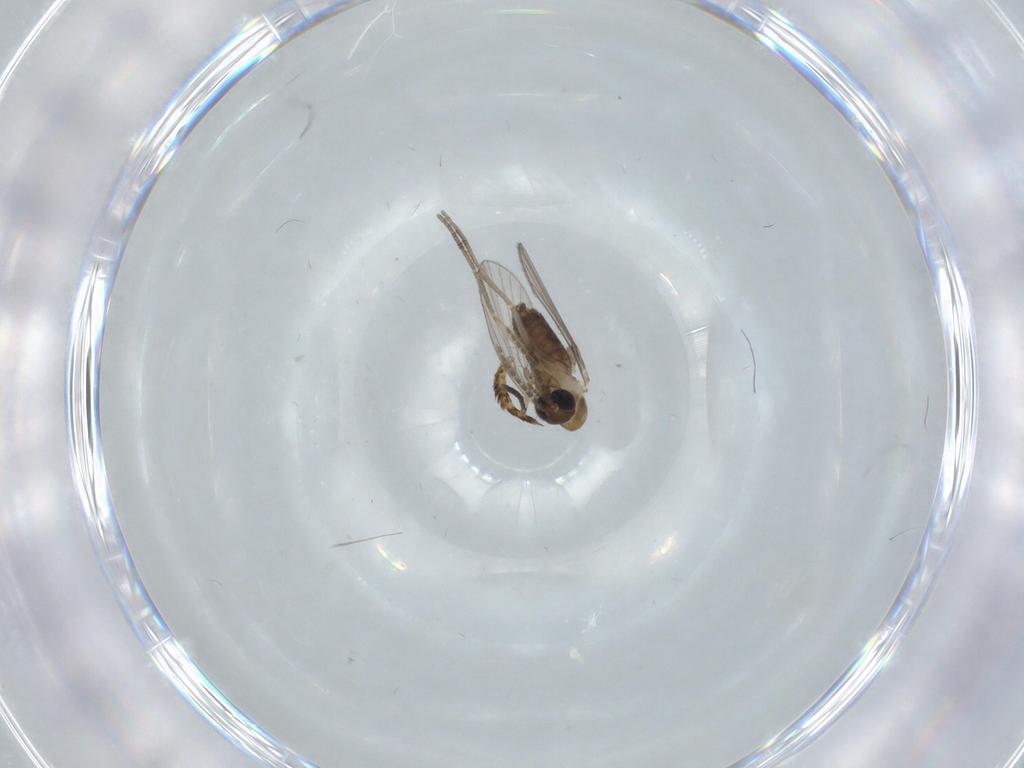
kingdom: Animalia
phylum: Arthropoda
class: Insecta
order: Diptera
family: Psychodidae
